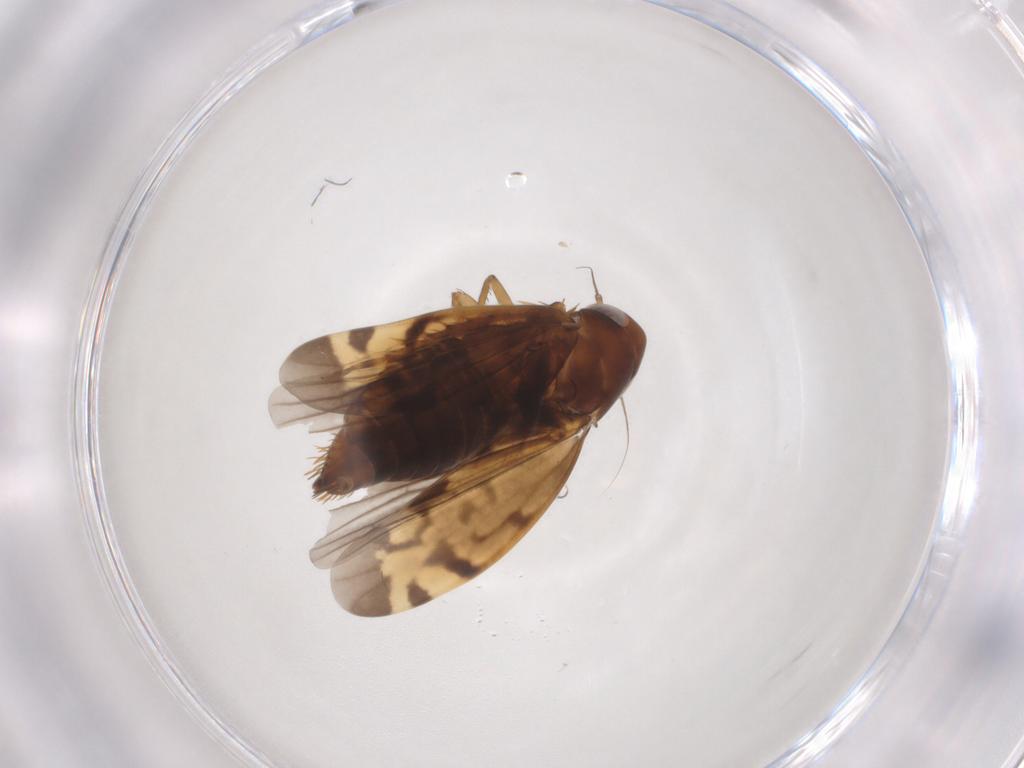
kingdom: Animalia
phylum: Arthropoda
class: Insecta
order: Hemiptera
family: Cicadellidae
